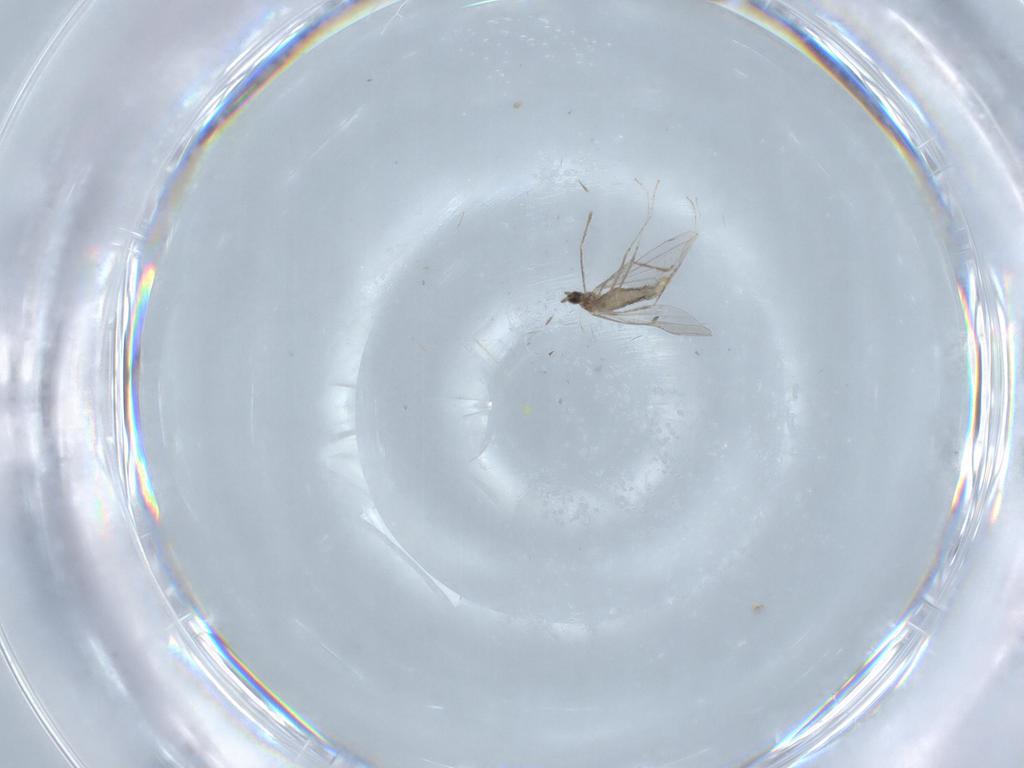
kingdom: Animalia
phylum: Arthropoda
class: Insecta
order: Diptera
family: Cecidomyiidae
